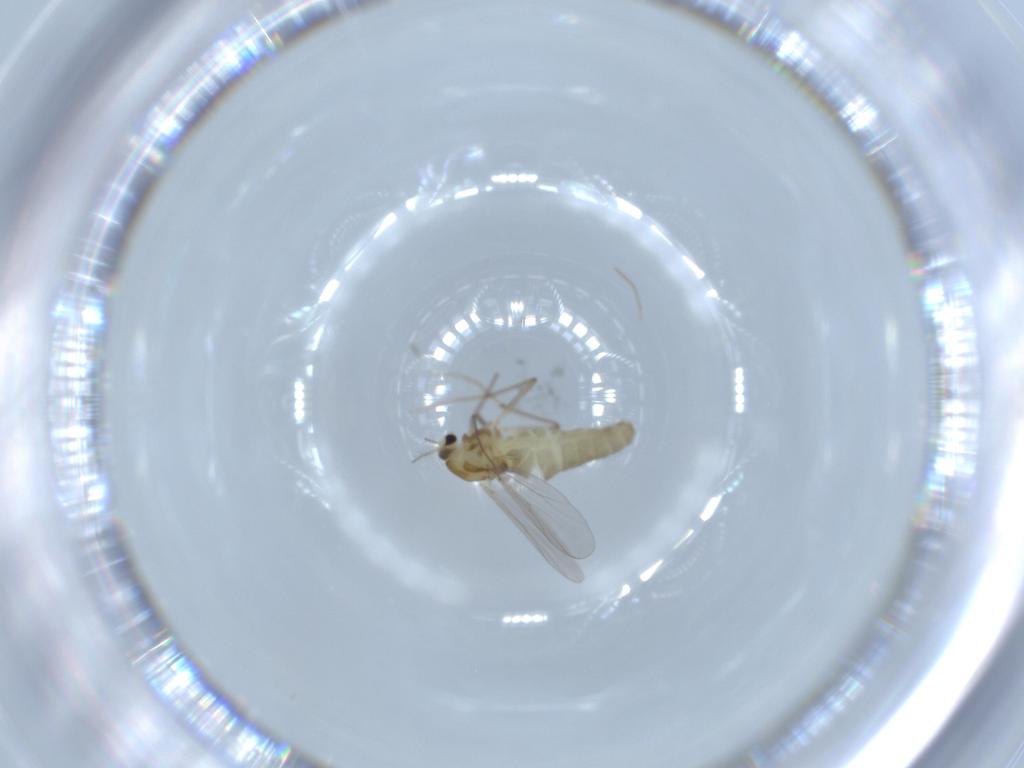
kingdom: Animalia
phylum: Arthropoda
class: Insecta
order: Diptera
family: Chironomidae
